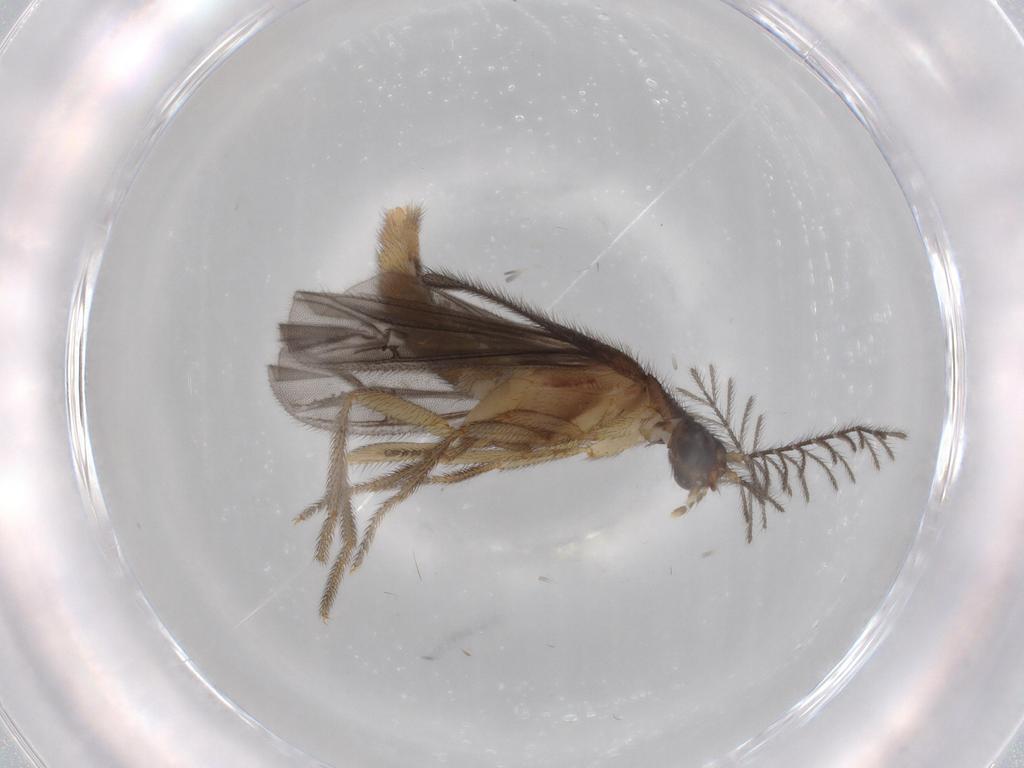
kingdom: Animalia
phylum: Arthropoda
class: Insecta
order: Coleoptera
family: Phengodidae
